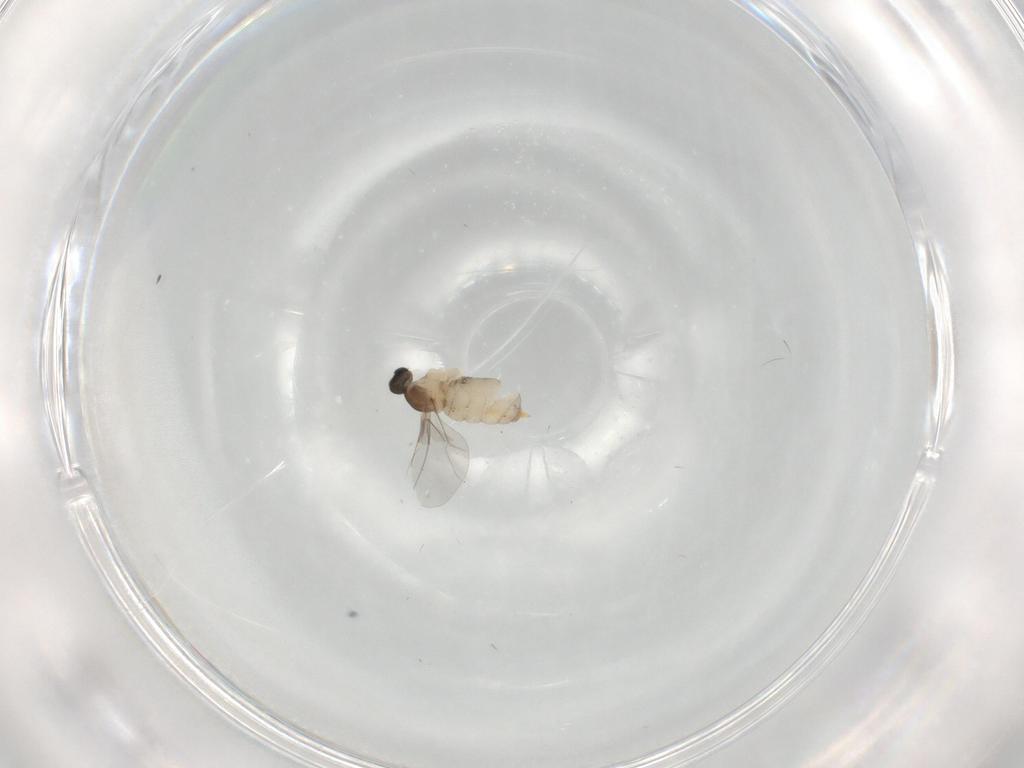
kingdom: Animalia
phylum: Arthropoda
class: Insecta
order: Diptera
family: Cecidomyiidae
